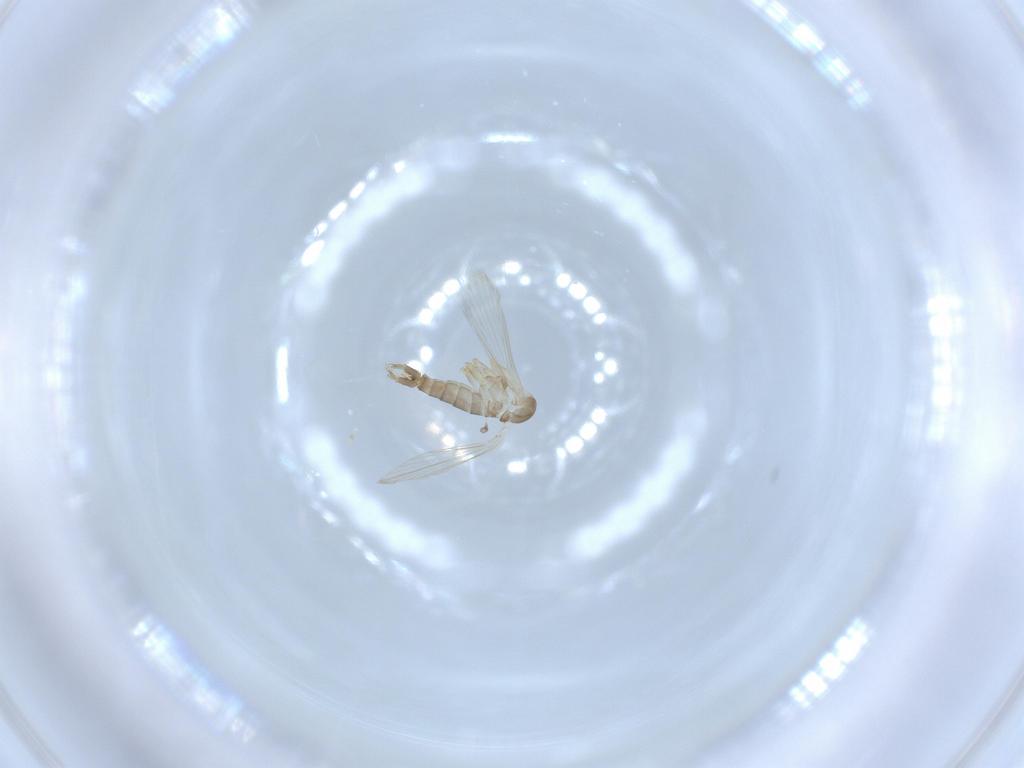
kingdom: Animalia
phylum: Arthropoda
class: Insecta
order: Diptera
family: Psychodidae
